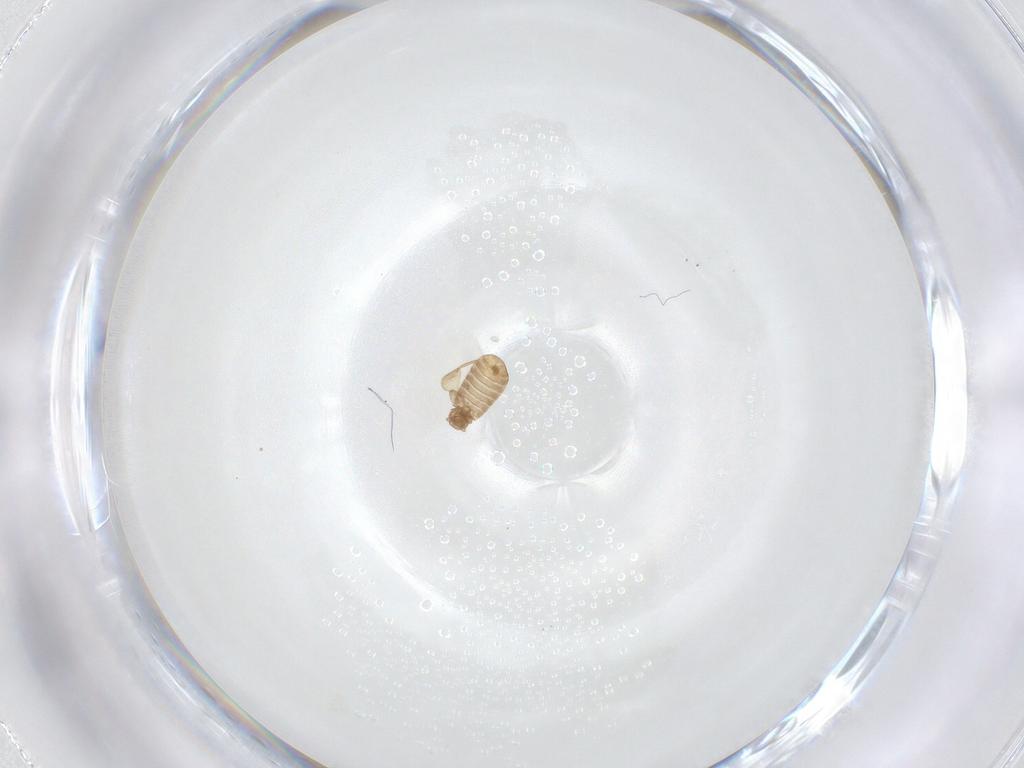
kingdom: Animalia
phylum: Arthropoda
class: Insecta
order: Psocodea
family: Liposcelididae
